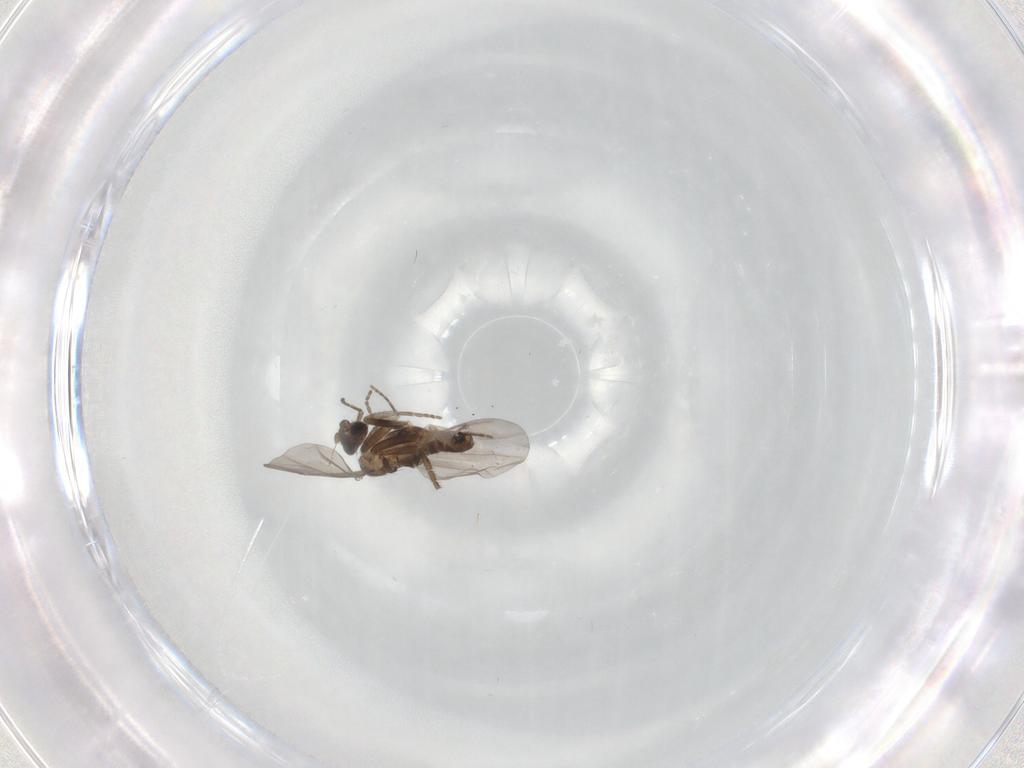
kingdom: Animalia
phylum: Arthropoda
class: Insecta
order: Diptera
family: Phoridae
